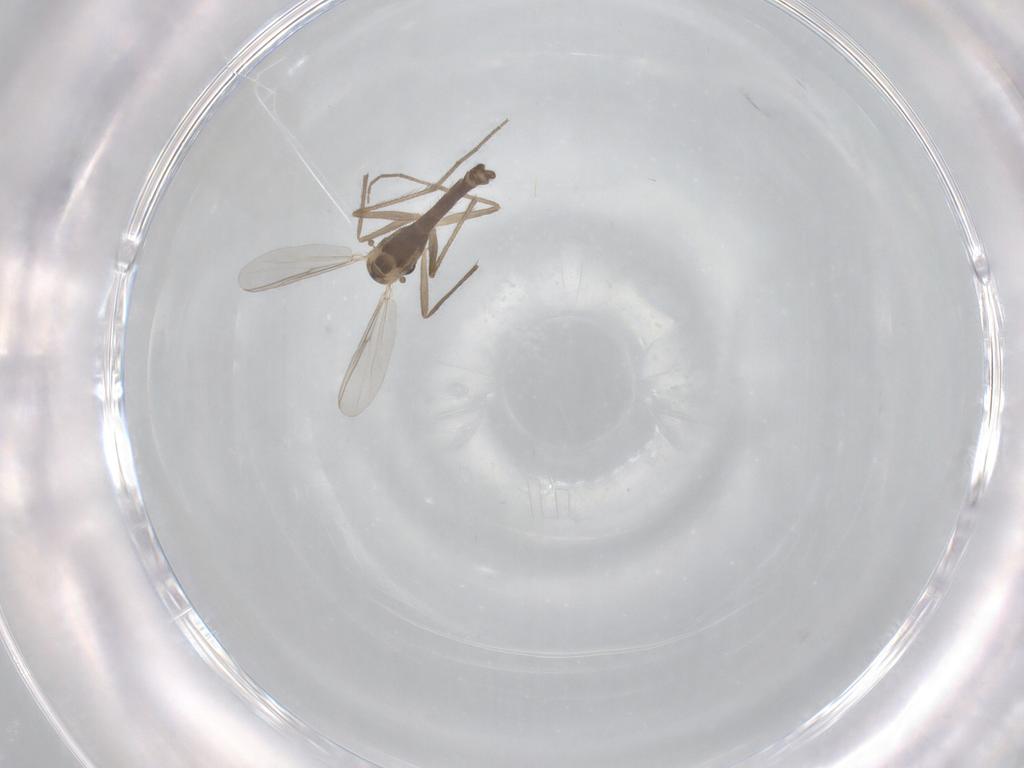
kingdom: Animalia
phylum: Arthropoda
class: Insecta
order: Diptera
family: Chironomidae
